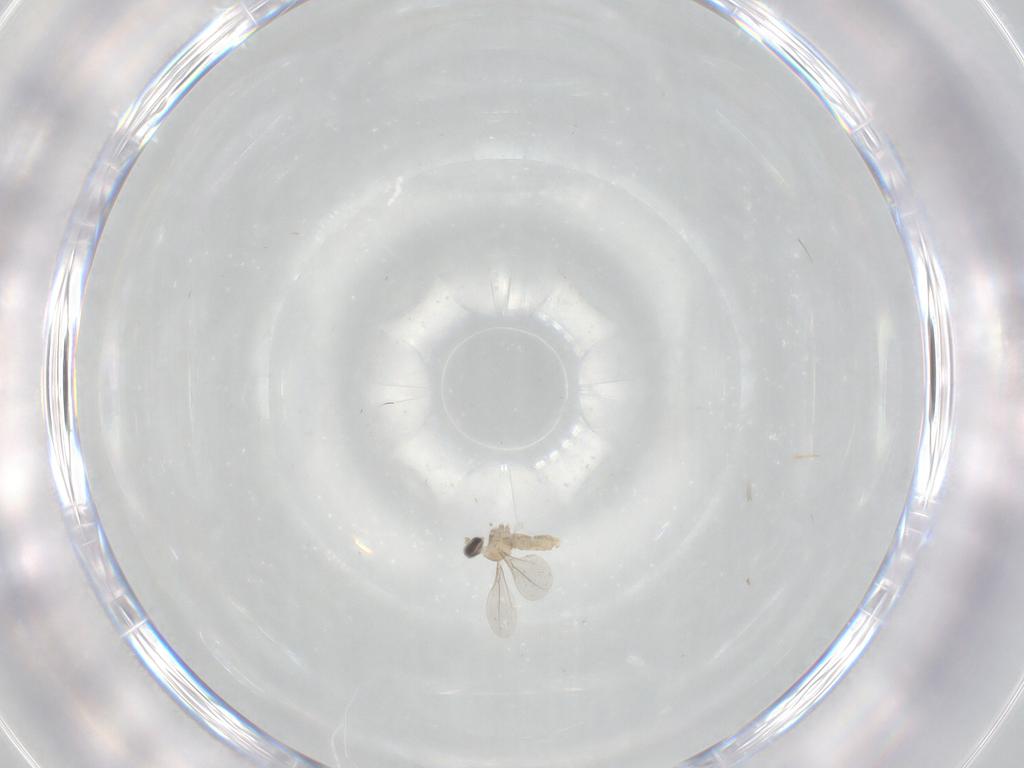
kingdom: Animalia
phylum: Arthropoda
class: Insecta
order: Diptera
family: Cecidomyiidae
